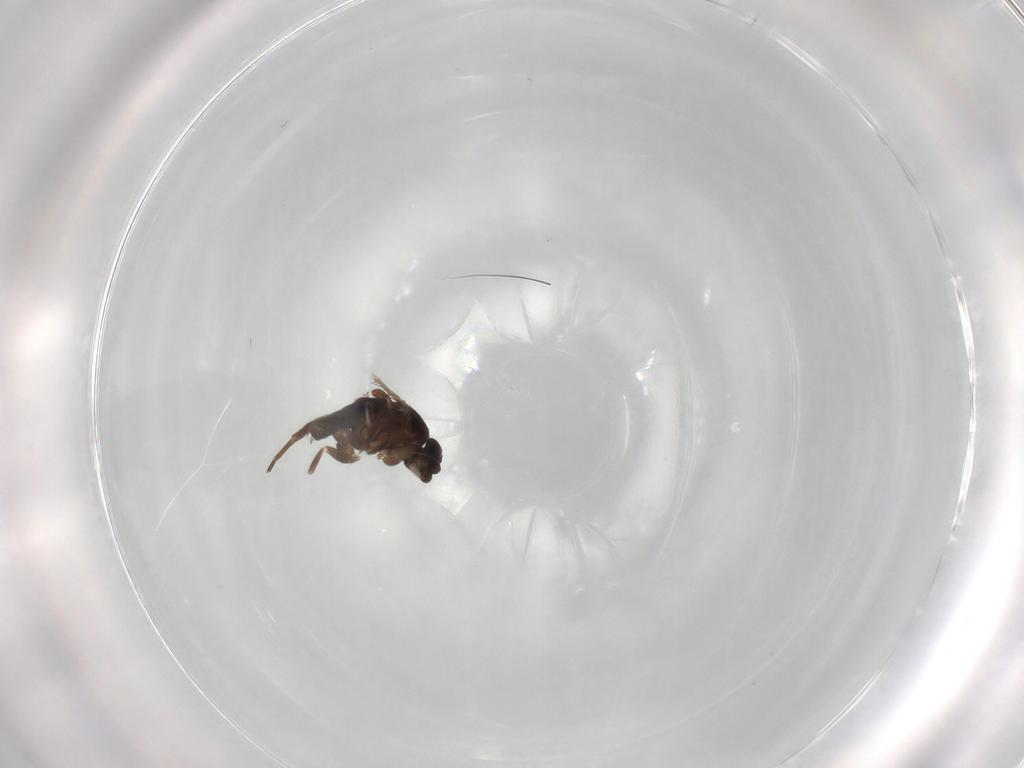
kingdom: Animalia
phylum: Arthropoda
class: Insecta
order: Diptera
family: Phoridae
